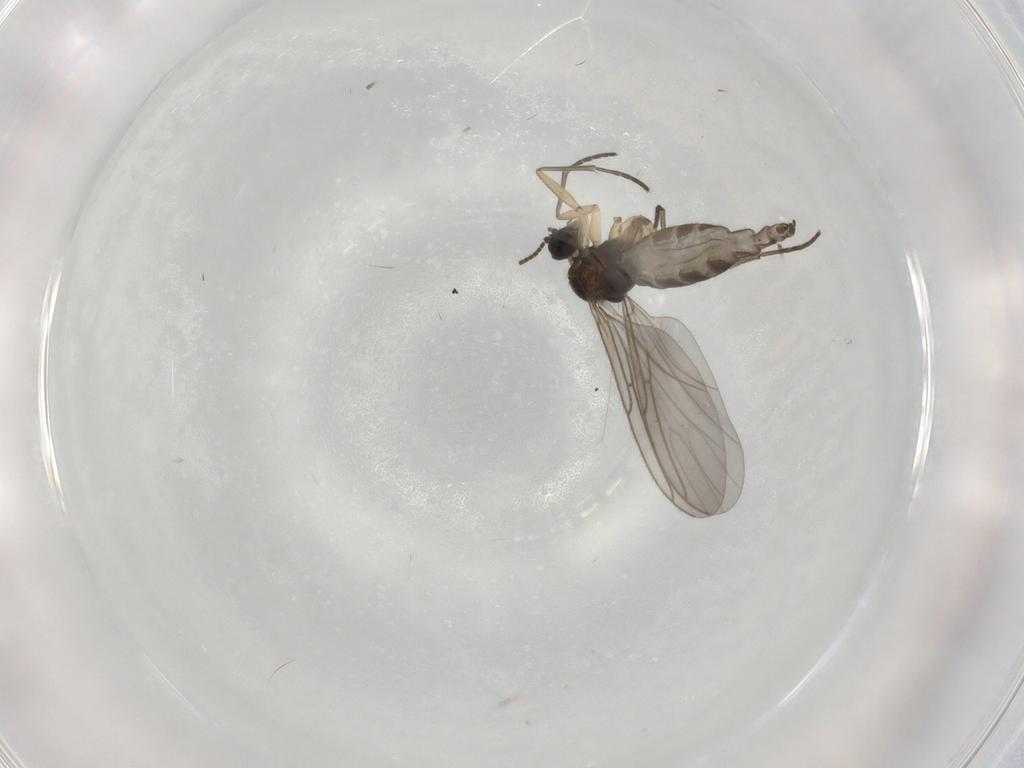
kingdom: Animalia
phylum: Arthropoda
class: Insecta
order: Diptera
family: Sciaridae
